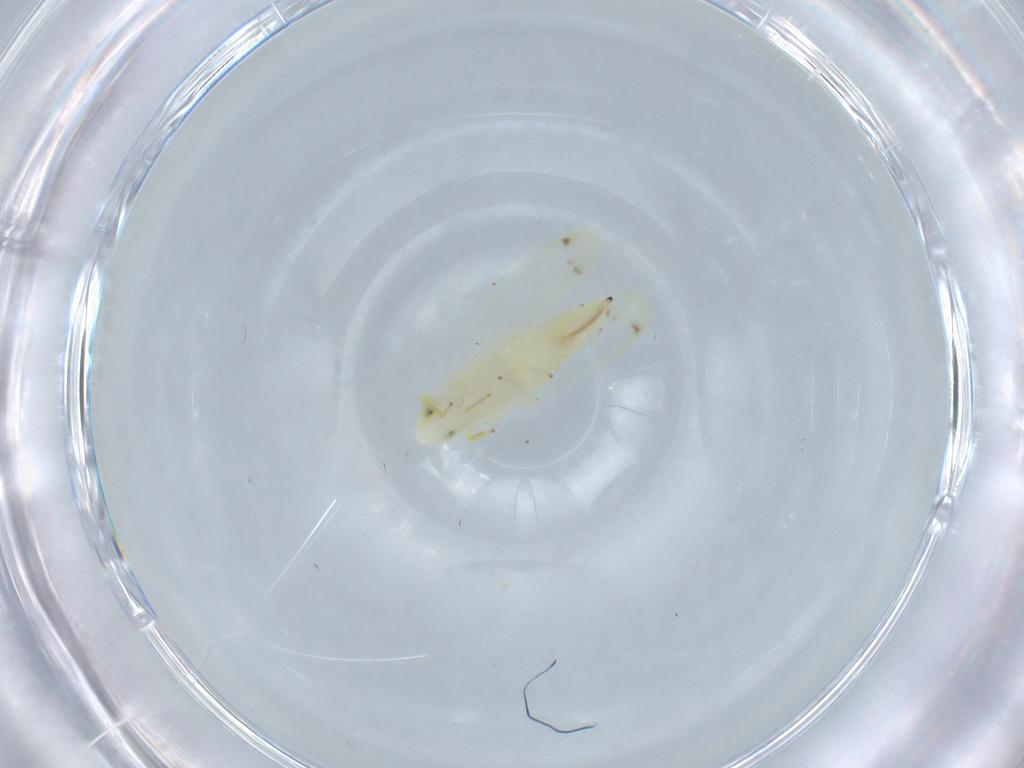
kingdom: Animalia
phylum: Arthropoda
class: Insecta
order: Hemiptera
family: Cicadellidae
